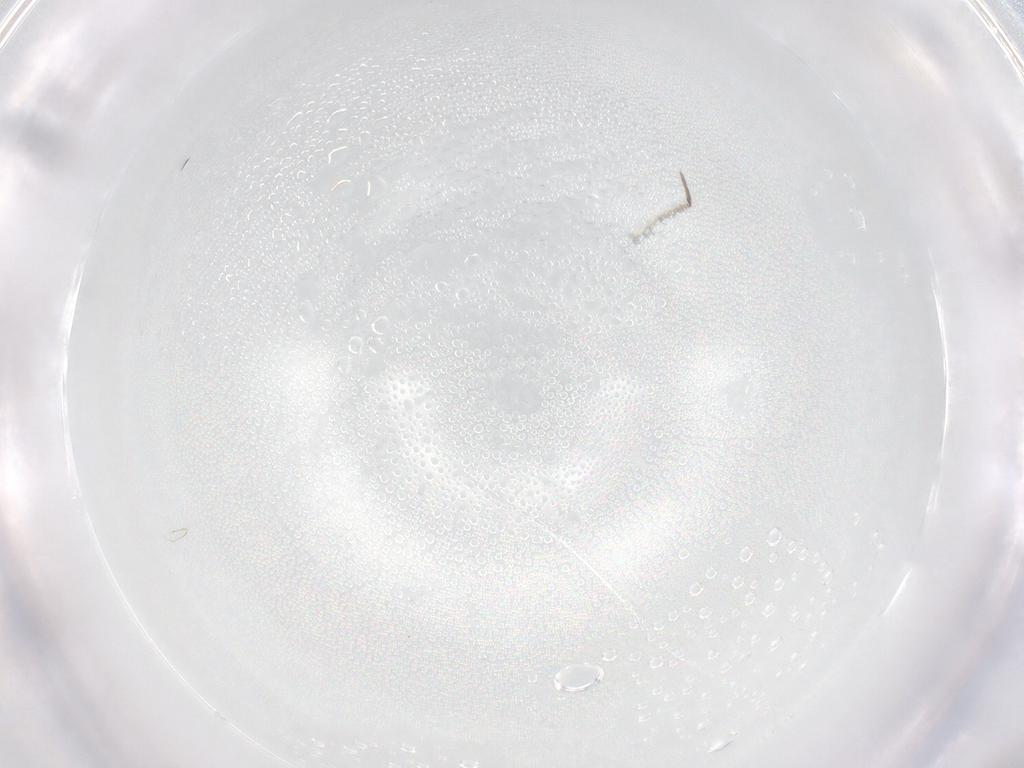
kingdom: Animalia
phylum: Arthropoda
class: Insecta
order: Diptera
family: Ceratopogonidae
